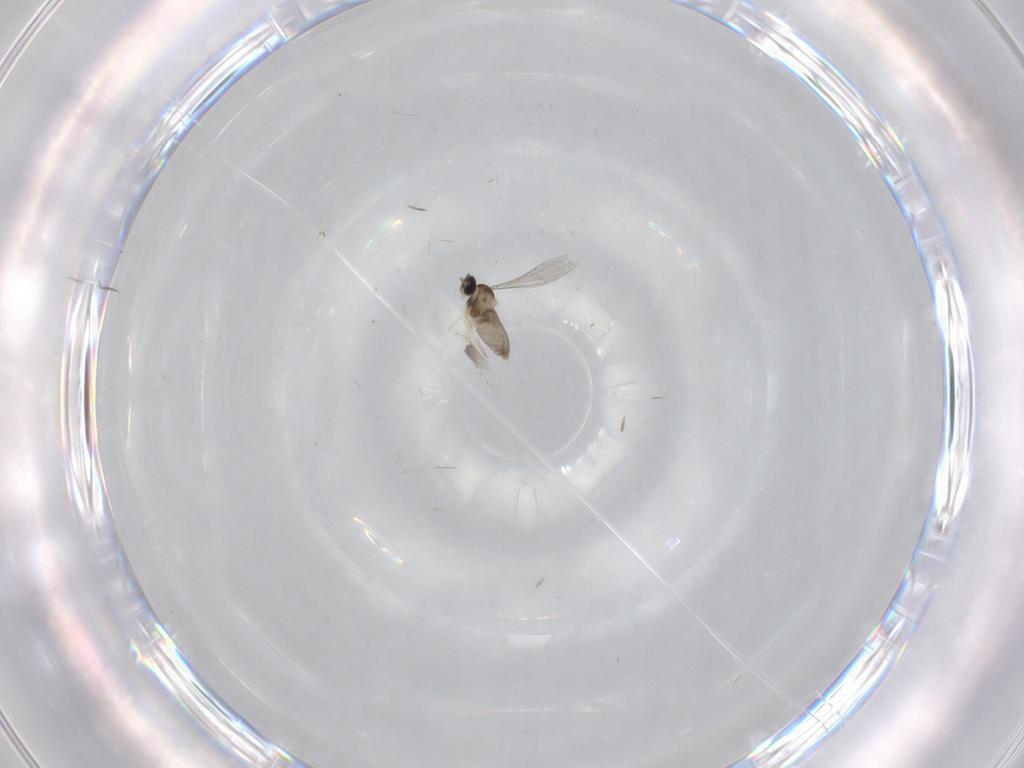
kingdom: Animalia
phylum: Arthropoda
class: Insecta
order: Diptera
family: Cecidomyiidae
